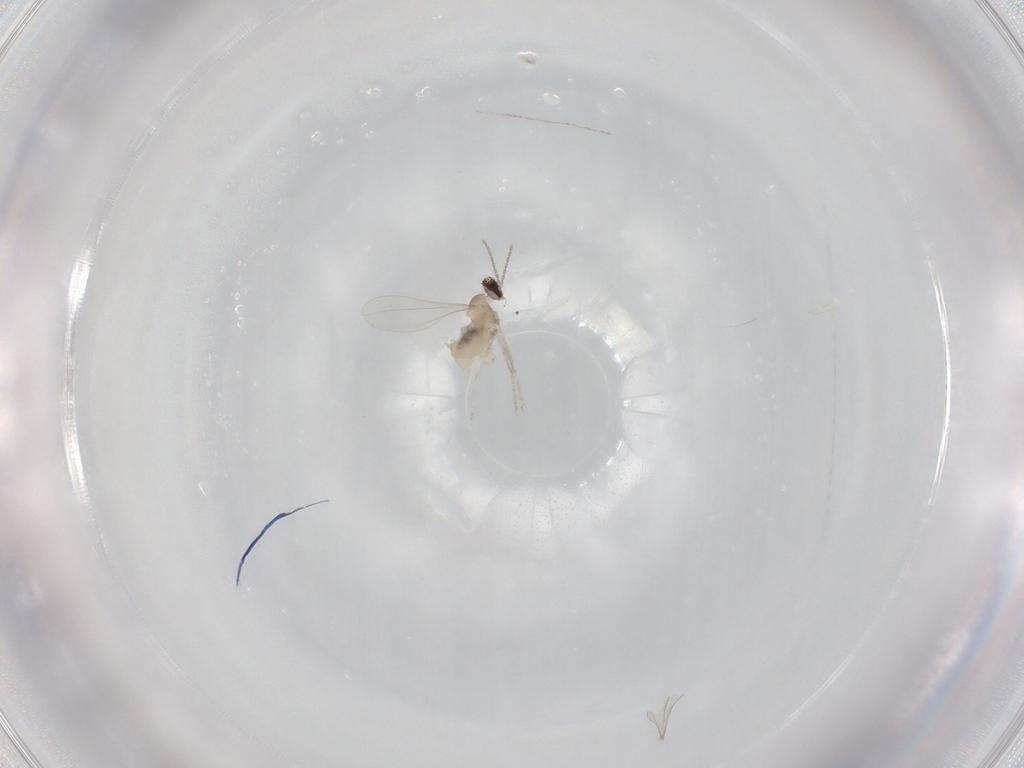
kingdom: Animalia
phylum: Arthropoda
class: Insecta
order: Diptera
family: Cecidomyiidae
